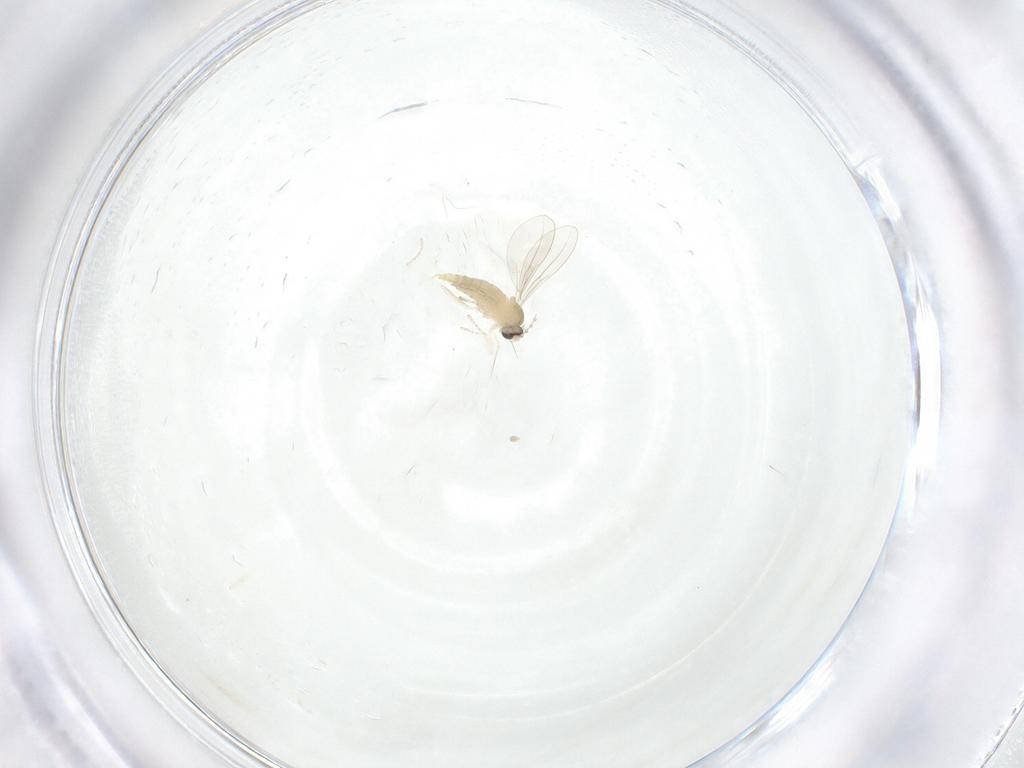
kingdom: Animalia
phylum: Arthropoda
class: Insecta
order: Diptera
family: Cecidomyiidae
